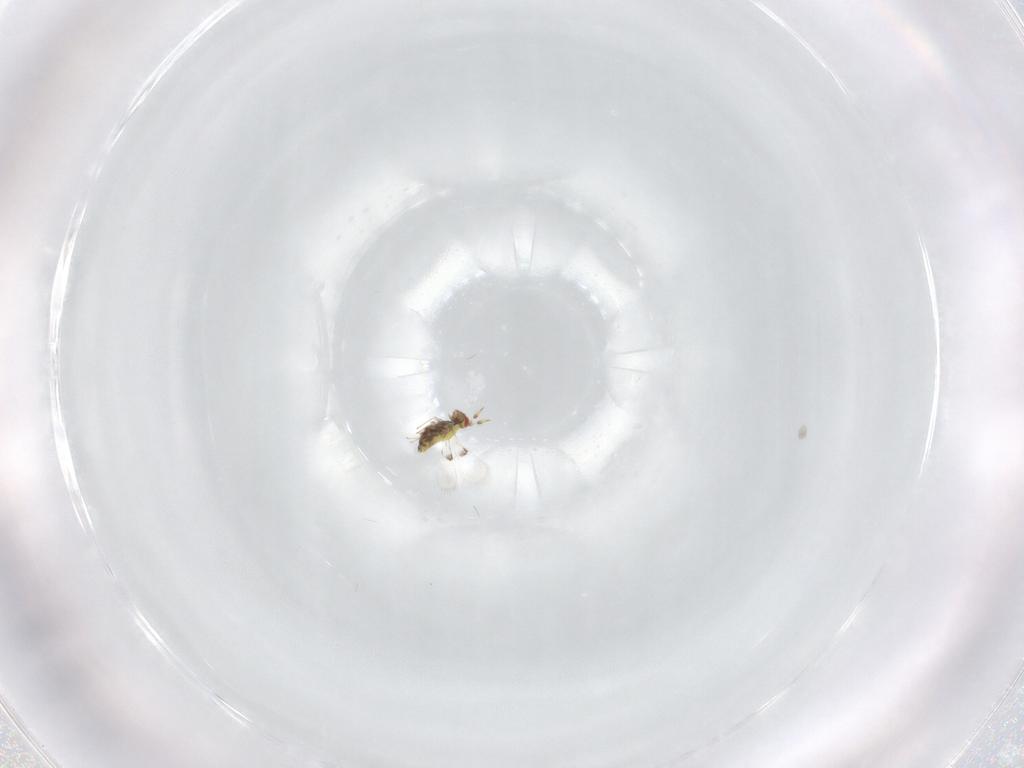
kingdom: Animalia
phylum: Arthropoda
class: Insecta
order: Hymenoptera
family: Trichogrammatidae
